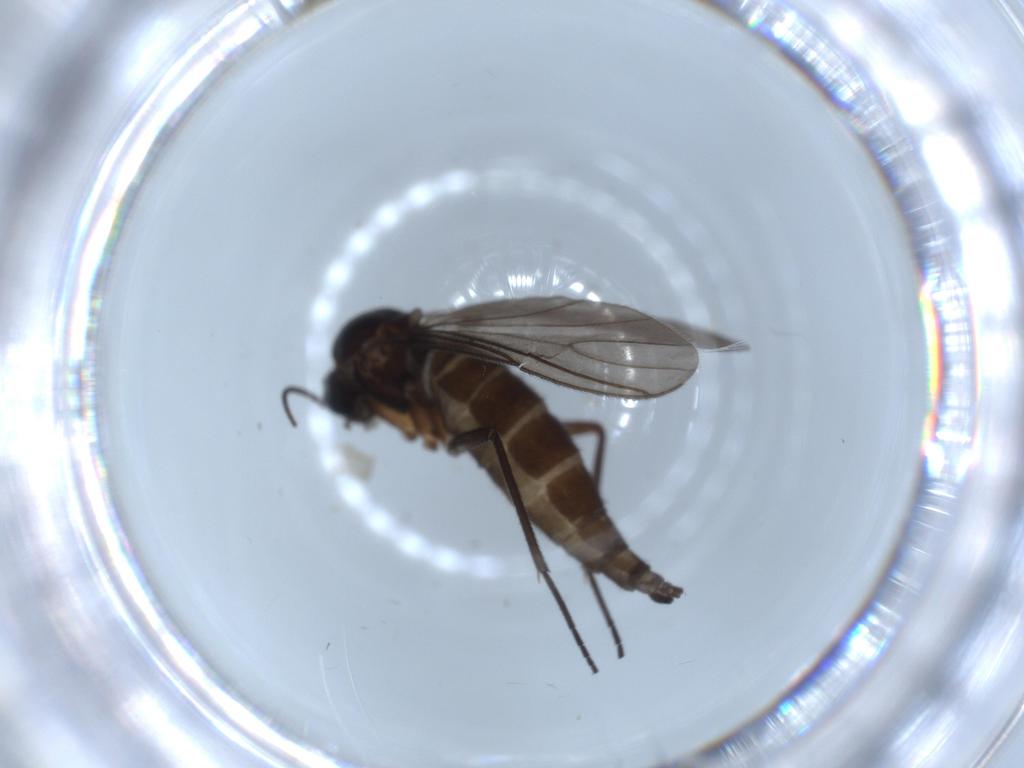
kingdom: Animalia
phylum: Arthropoda
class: Insecta
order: Diptera
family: Sciaridae
